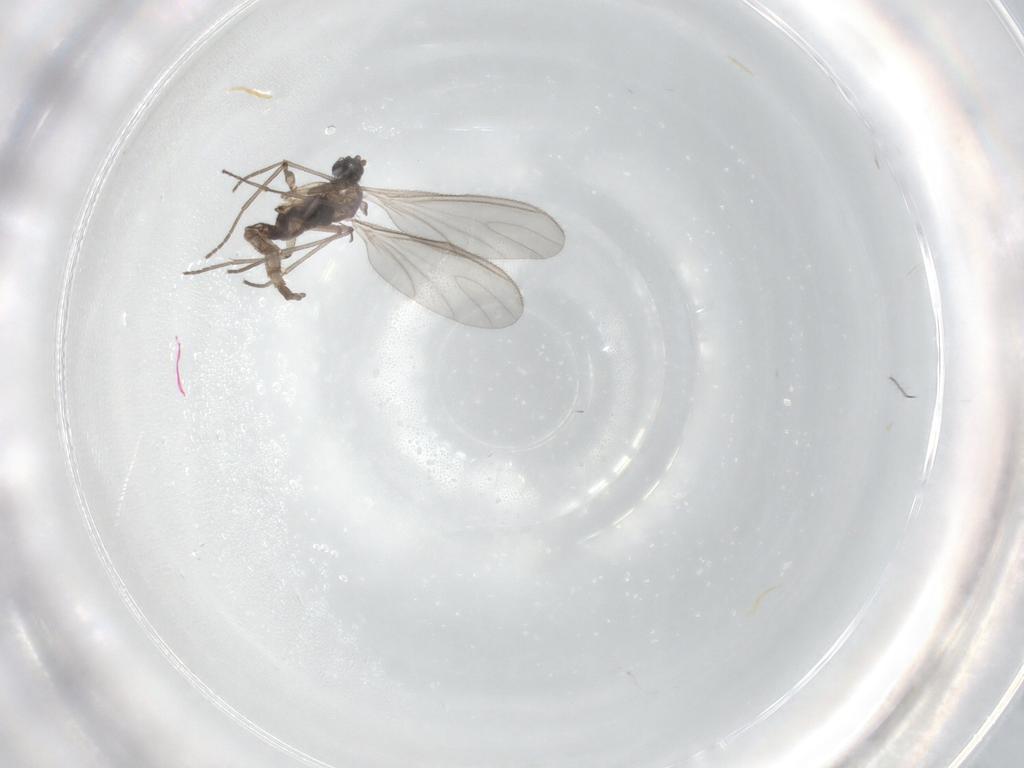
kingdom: Animalia
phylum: Arthropoda
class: Insecta
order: Diptera
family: Sciaridae
